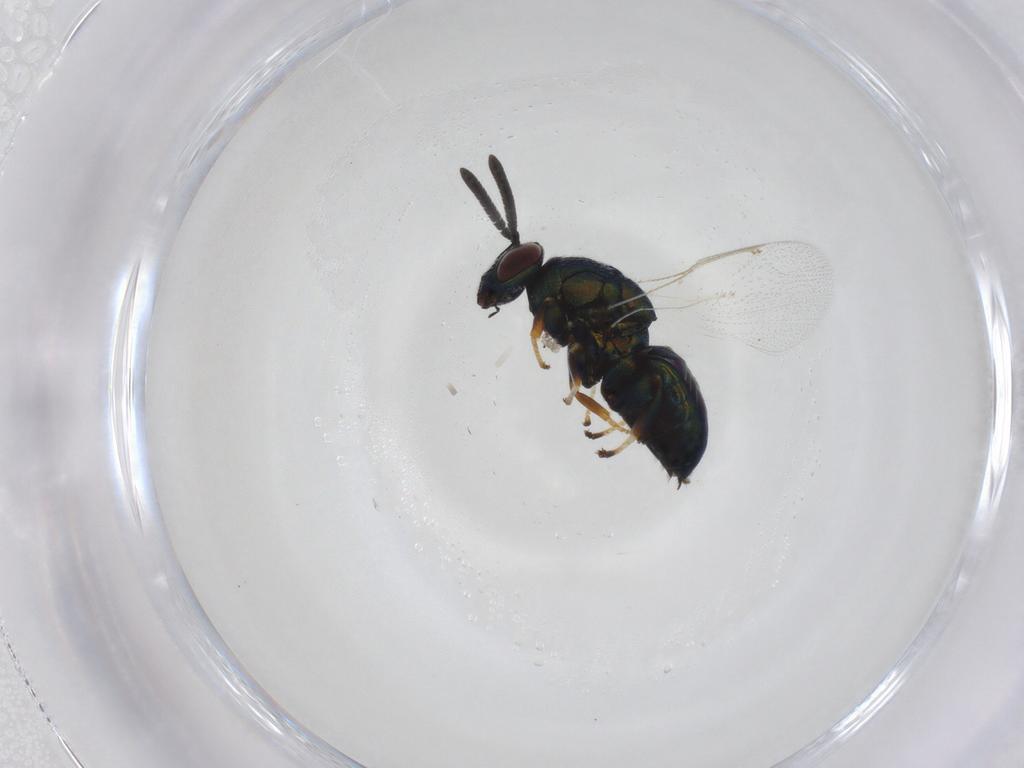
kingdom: Animalia
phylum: Arthropoda
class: Insecta
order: Hymenoptera
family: Torymidae
